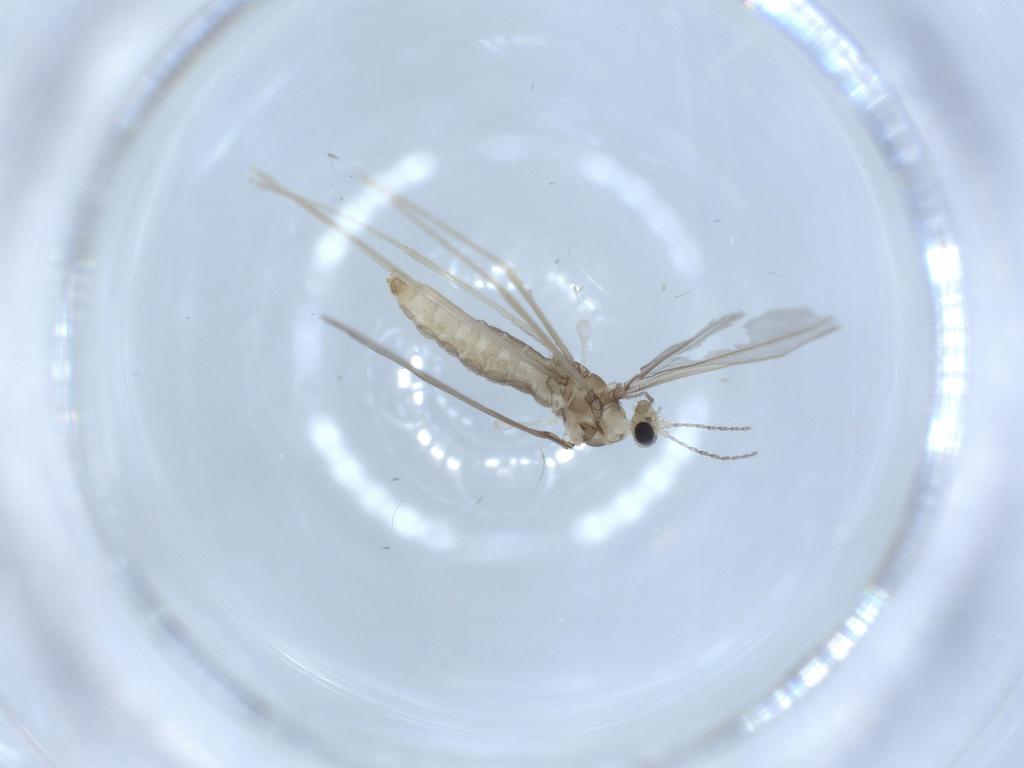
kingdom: Animalia
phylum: Arthropoda
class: Insecta
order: Diptera
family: Cecidomyiidae
